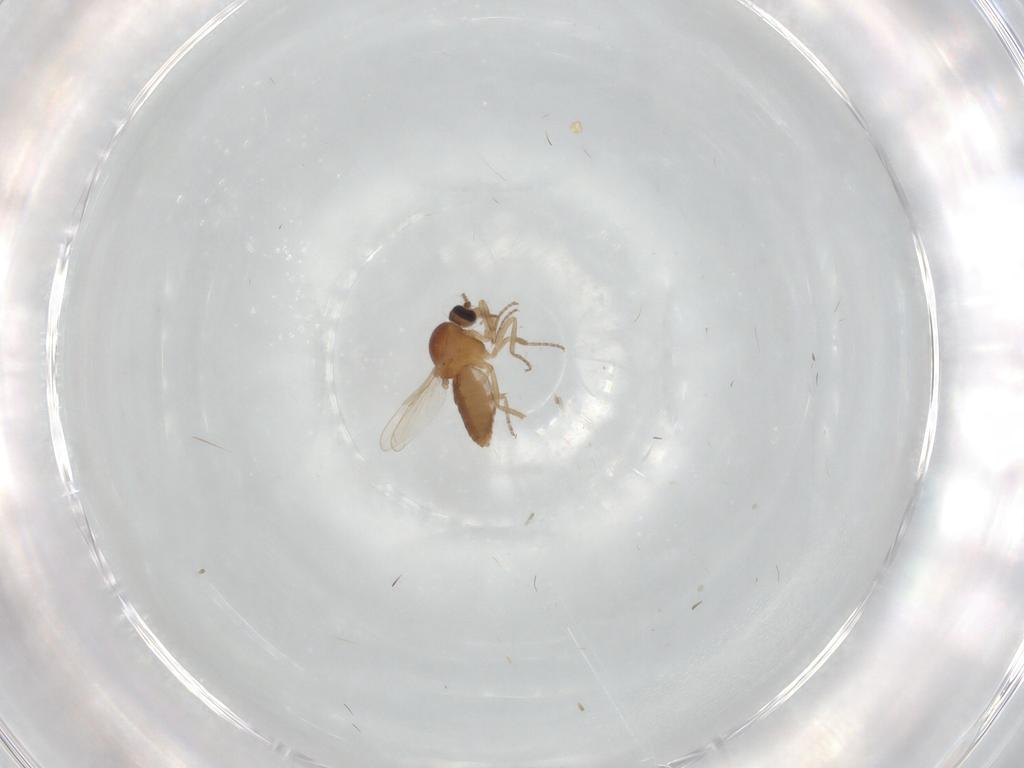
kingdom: Animalia
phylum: Arthropoda
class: Insecta
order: Diptera
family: Ceratopogonidae
